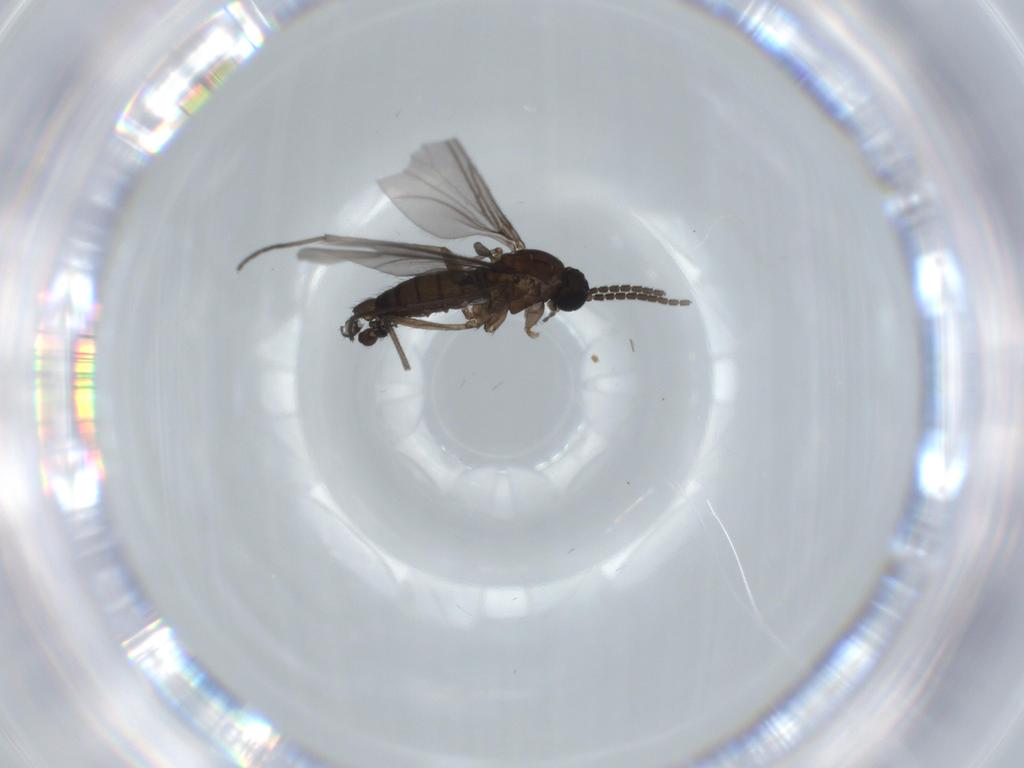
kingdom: Animalia
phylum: Arthropoda
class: Insecta
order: Diptera
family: Sciaridae
